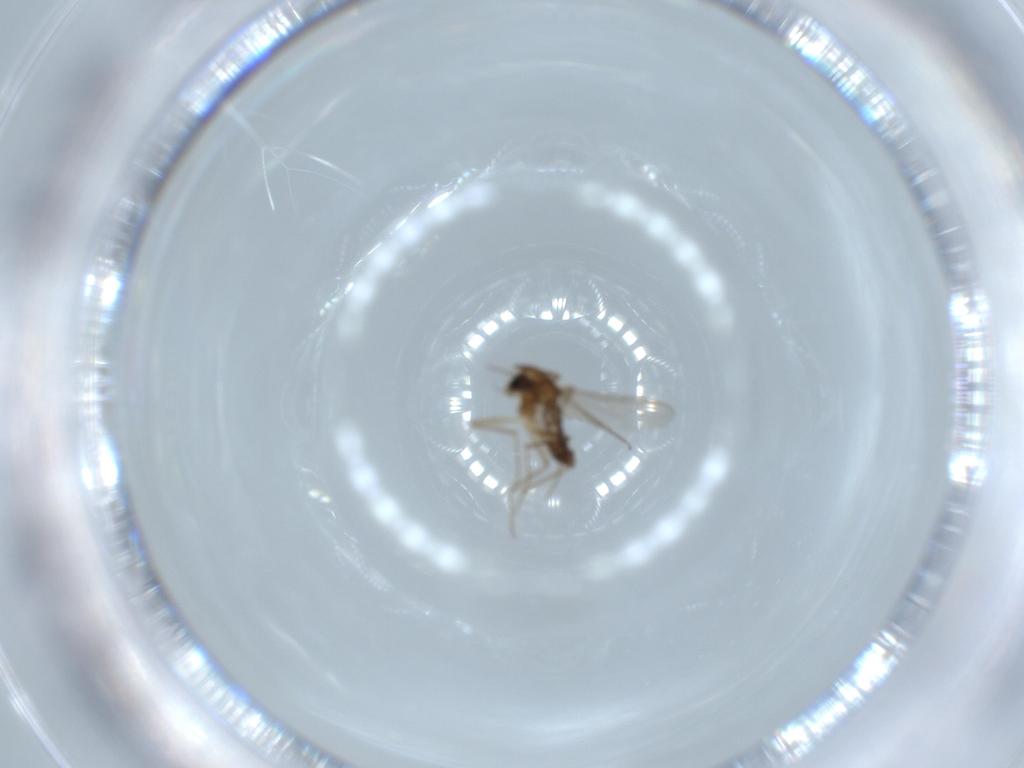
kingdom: Animalia
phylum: Arthropoda
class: Insecta
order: Diptera
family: Chironomidae
